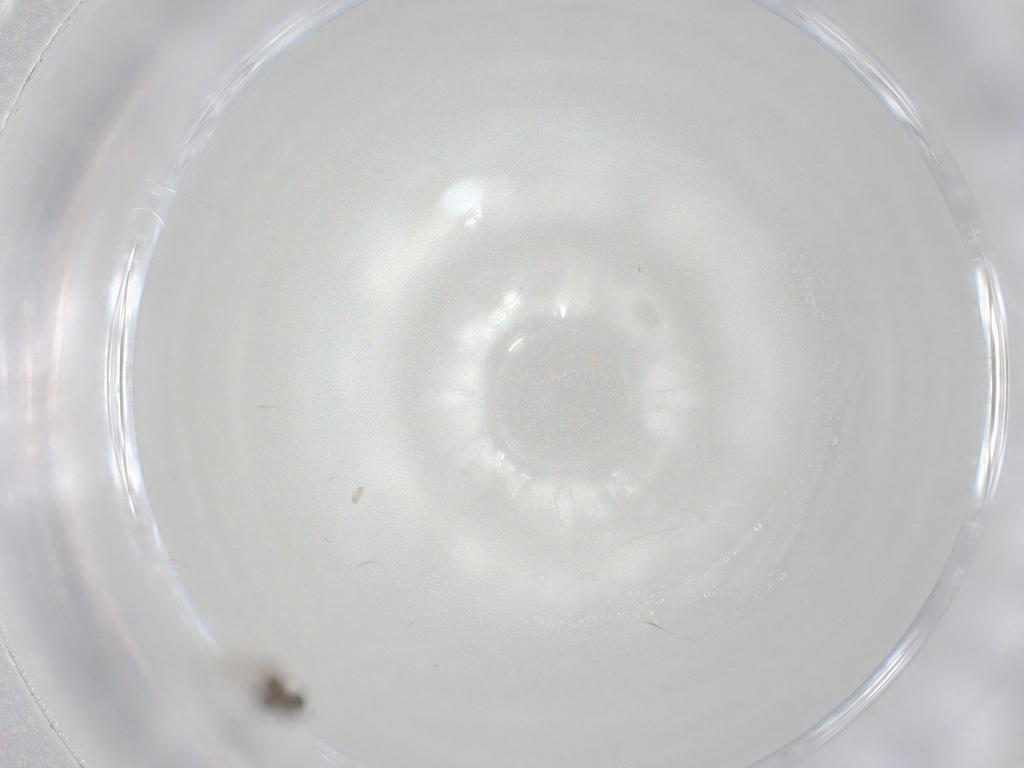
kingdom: Animalia
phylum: Arthropoda
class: Insecta
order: Diptera
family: Cecidomyiidae
